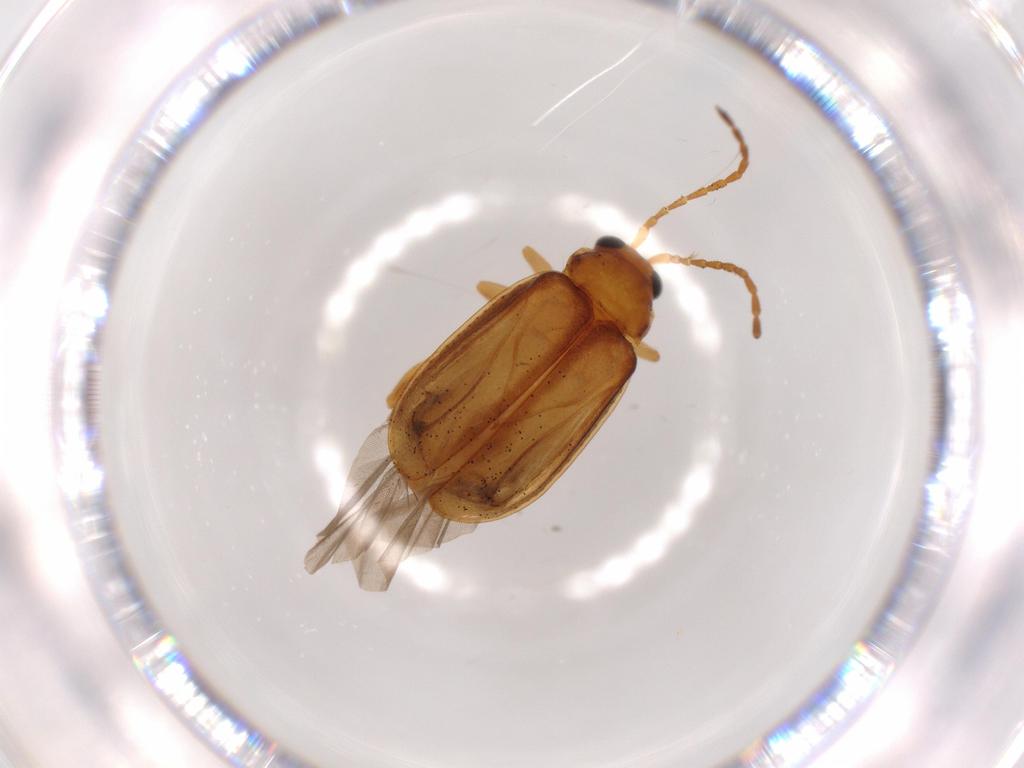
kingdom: Animalia
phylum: Arthropoda
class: Insecta
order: Coleoptera
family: Chrysomelidae
